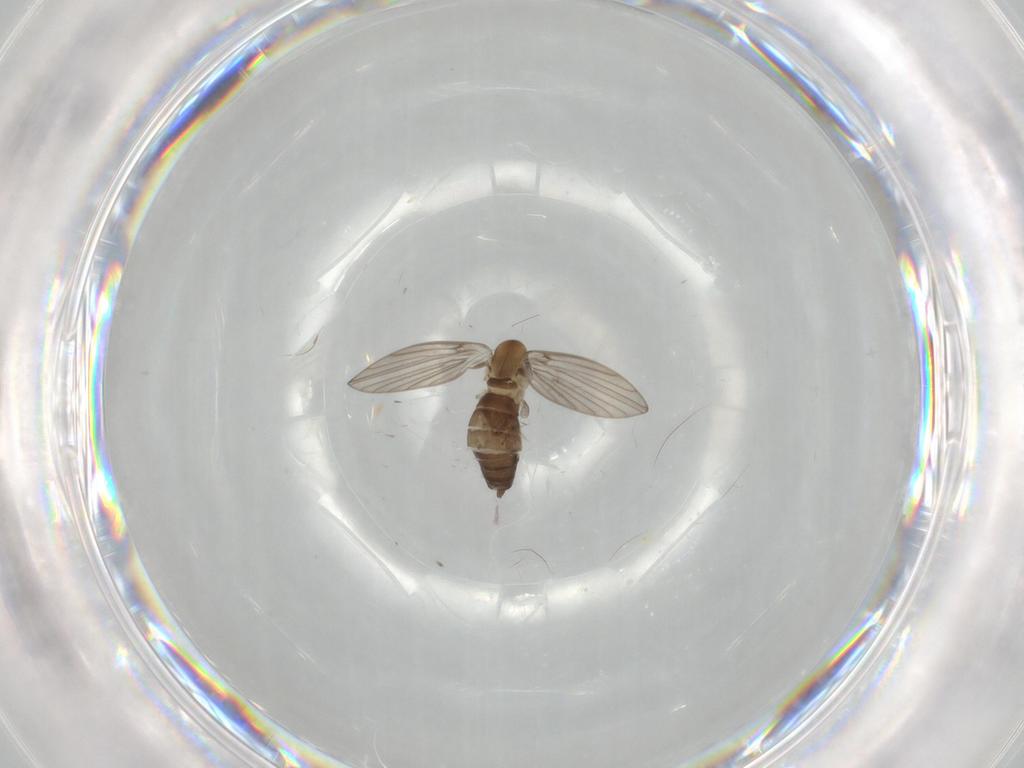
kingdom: Animalia
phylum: Arthropoda
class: Insecta
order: Diptera
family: Psychodidae
